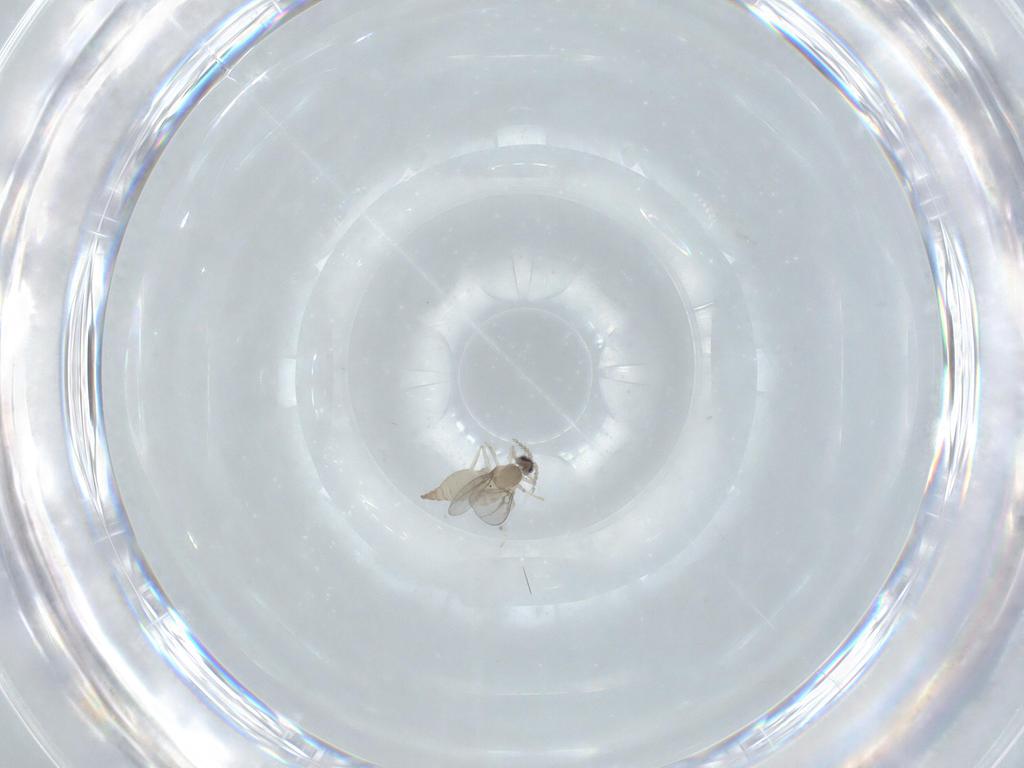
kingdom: Animalia
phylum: Arthropoda
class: Insecta
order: Diptera
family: Cecidomyiidae
